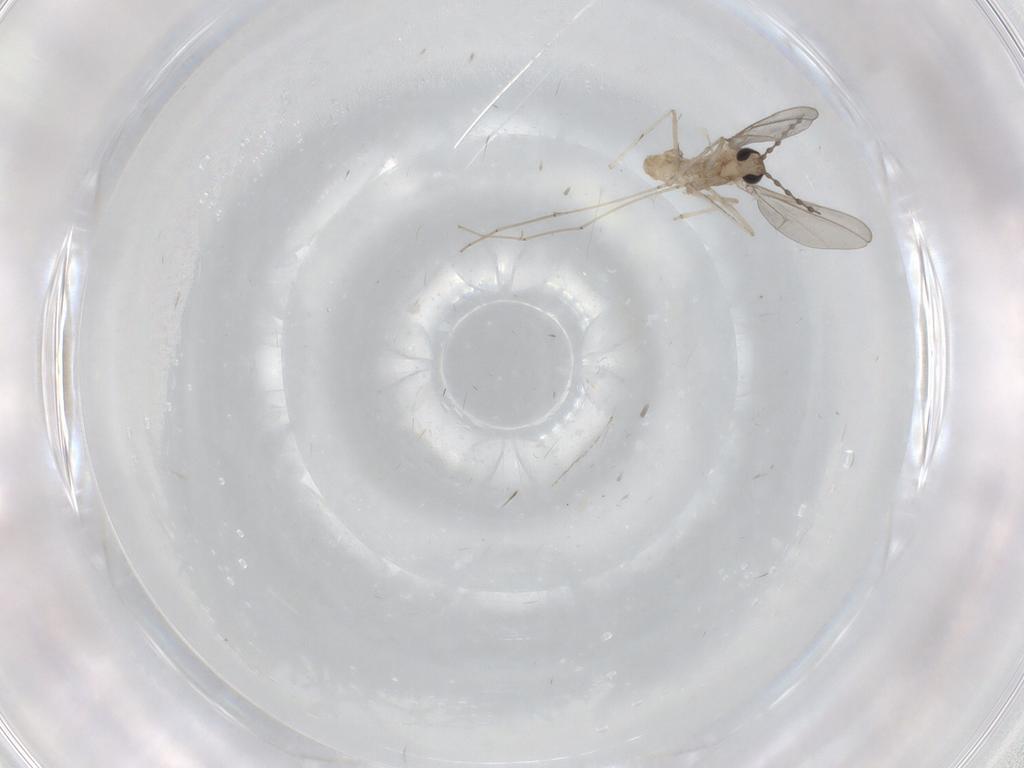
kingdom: Animalia
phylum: Arthropoda
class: Insecta
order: Diptera
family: Cecidomyiidae
